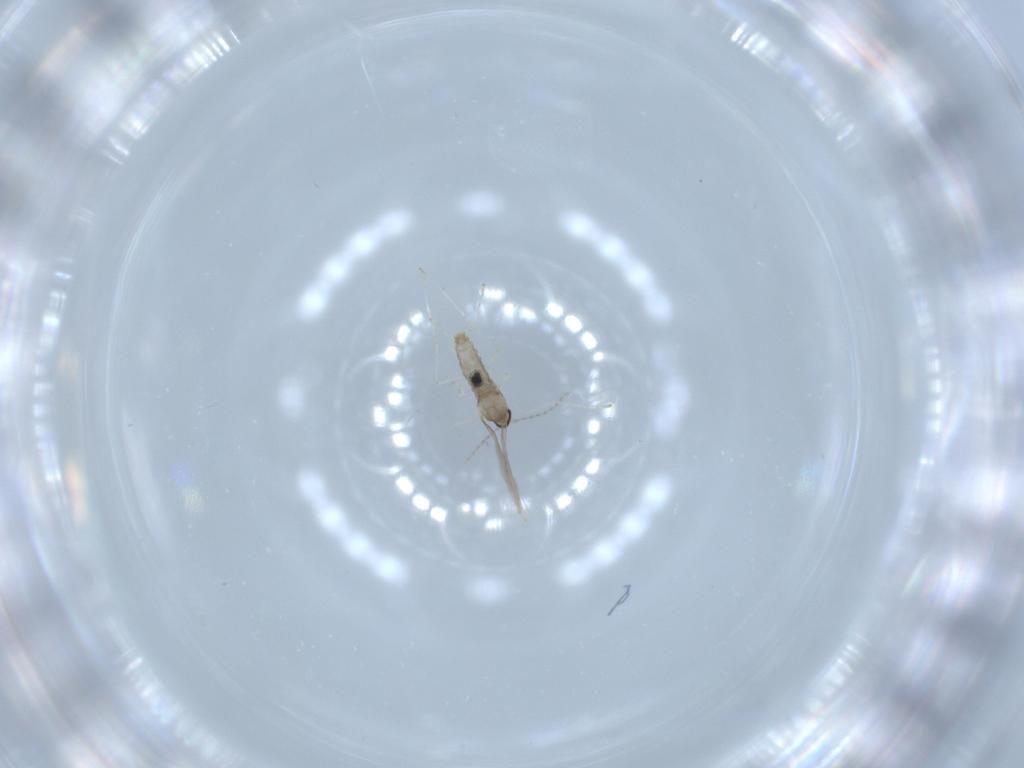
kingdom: Animalia
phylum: Arthropoda
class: Insecta
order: Diptera
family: Cecidomyiidae
